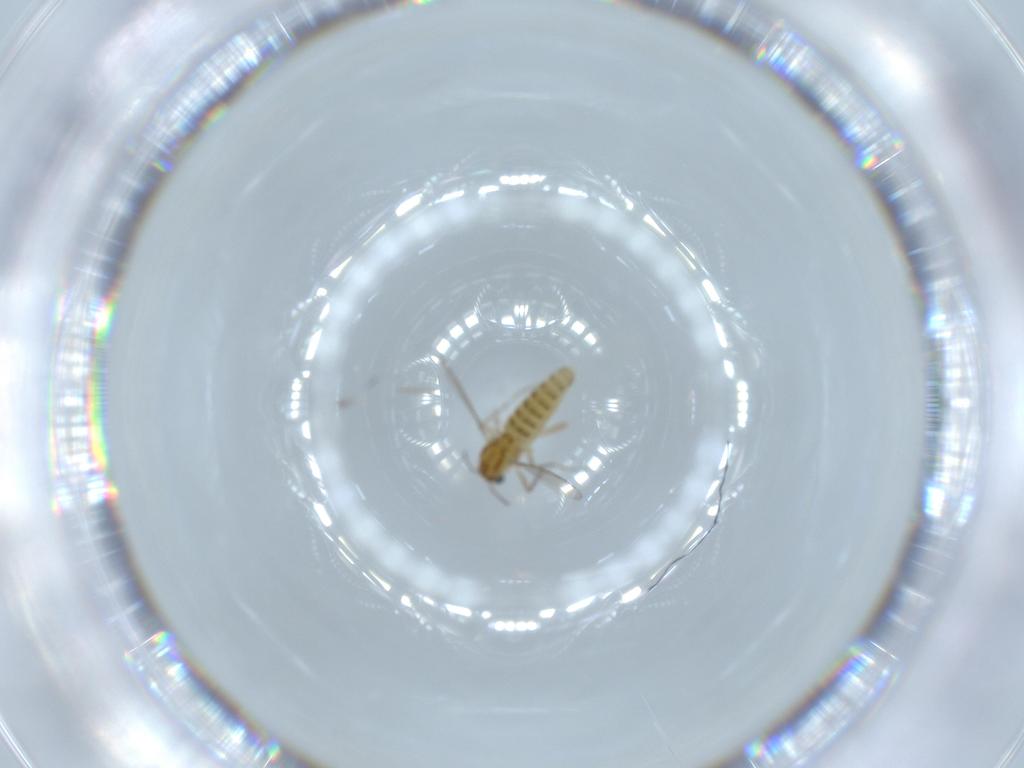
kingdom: Animalia
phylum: Arthropoda
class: Insecta
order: Diptera
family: Chironomidae
